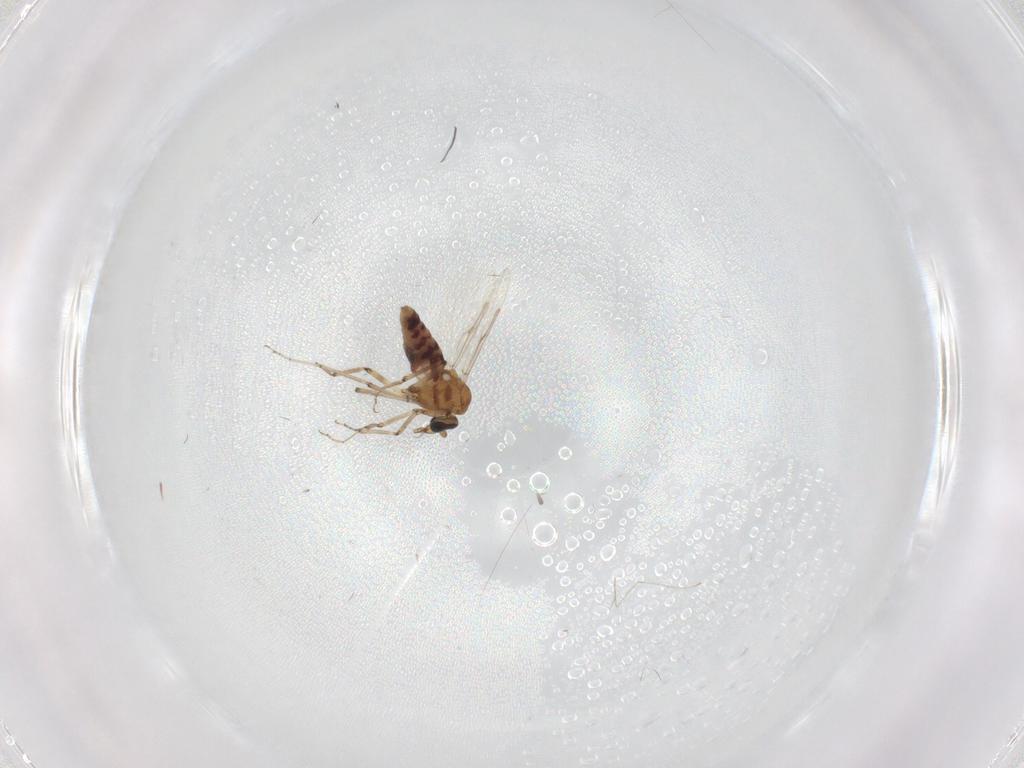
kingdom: Animalia
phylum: Arthropoda
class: Insecta
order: Diptera
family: Ceratopogonidae
